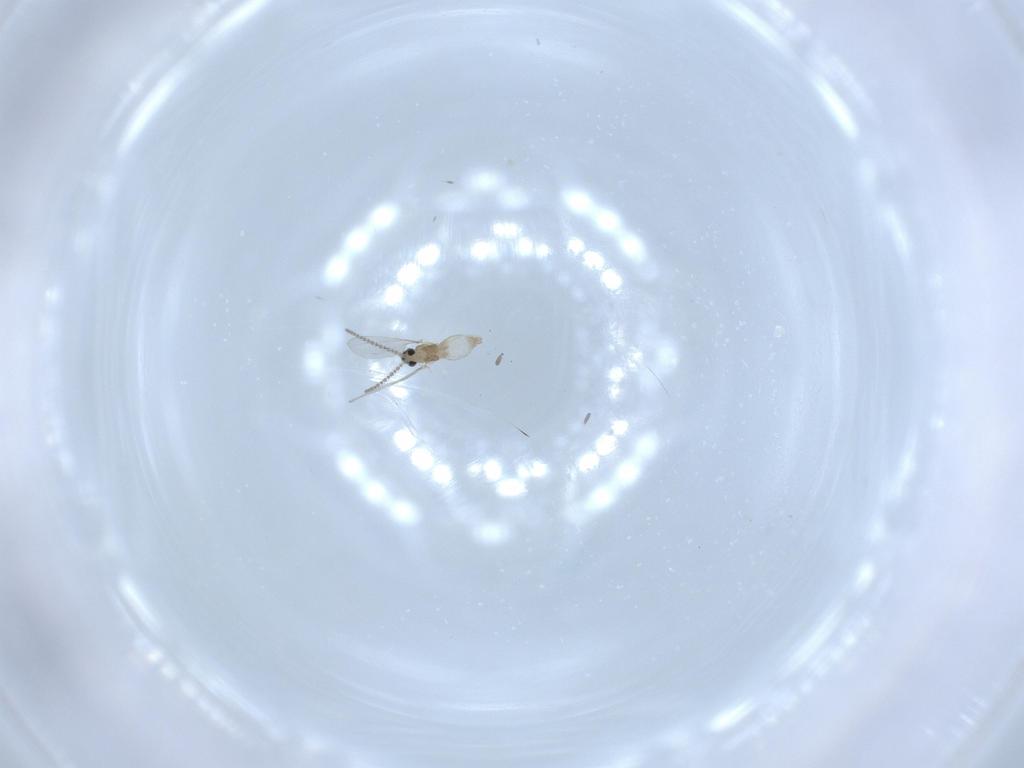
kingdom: Animalia
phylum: Arthropoda
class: Insecta
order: Diptera
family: Cecidomyiidae
